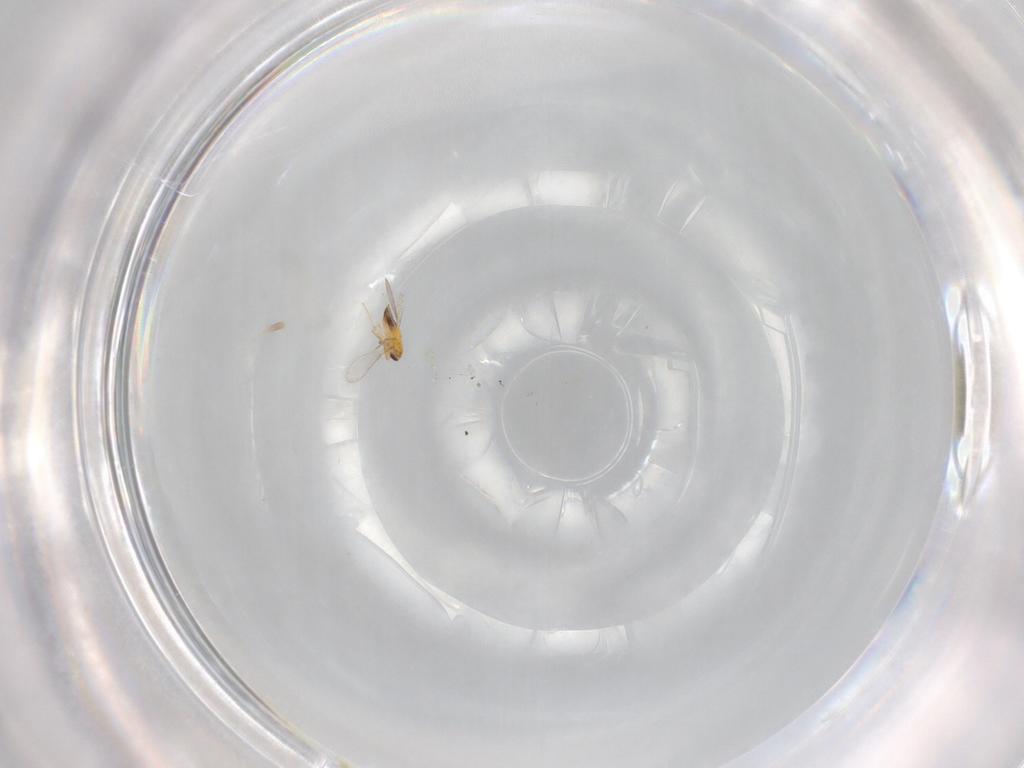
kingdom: Animalia
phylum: Arthropoda
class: Insecta
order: Hymenoptera
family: Aphelinidae
